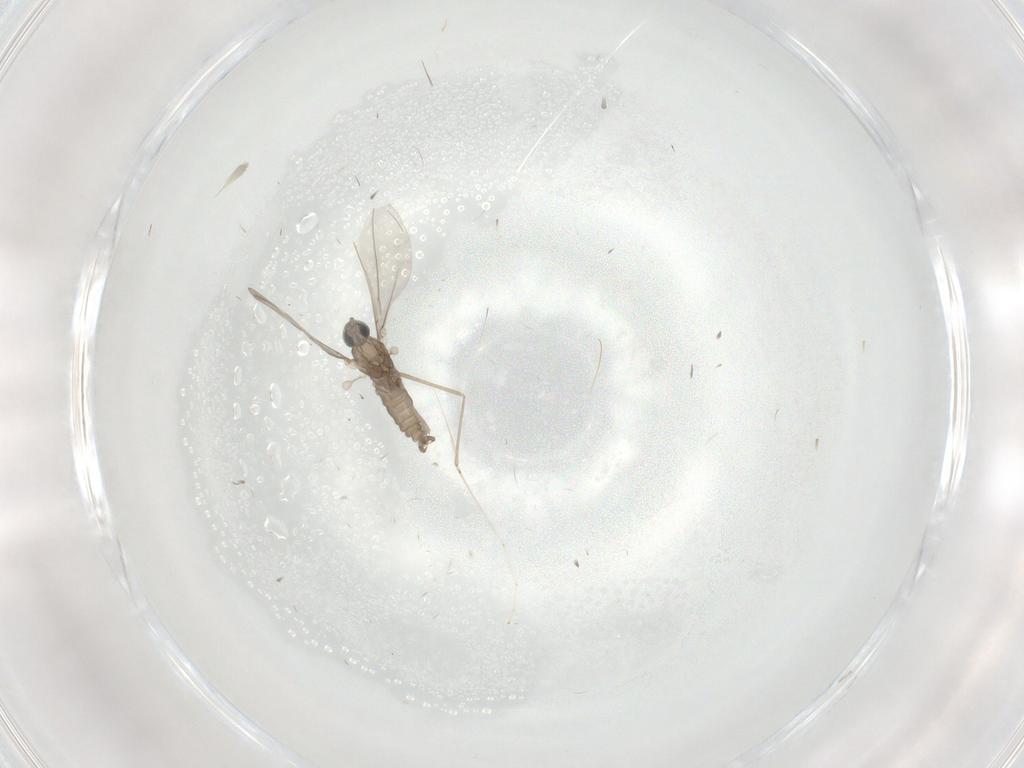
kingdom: Animalia
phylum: Arthropoda
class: Insecta
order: Diptera
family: Cecidomyiidae
